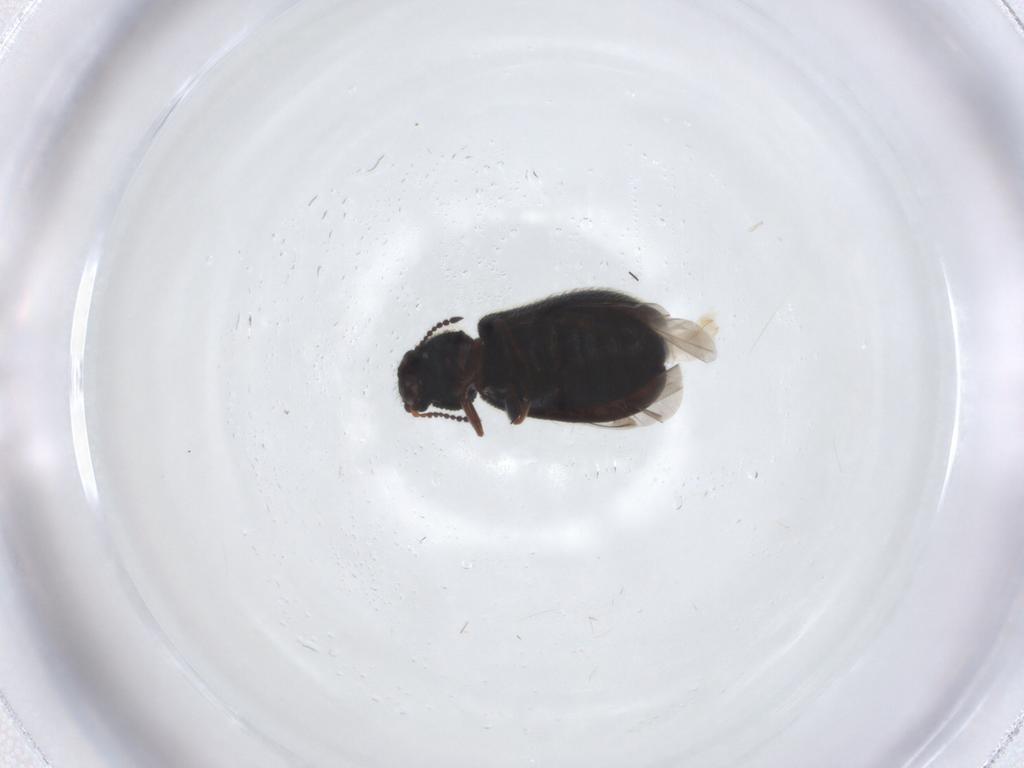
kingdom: Animalia
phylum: Arthropoda
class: Insecta
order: Coleoptera
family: Melyridae
